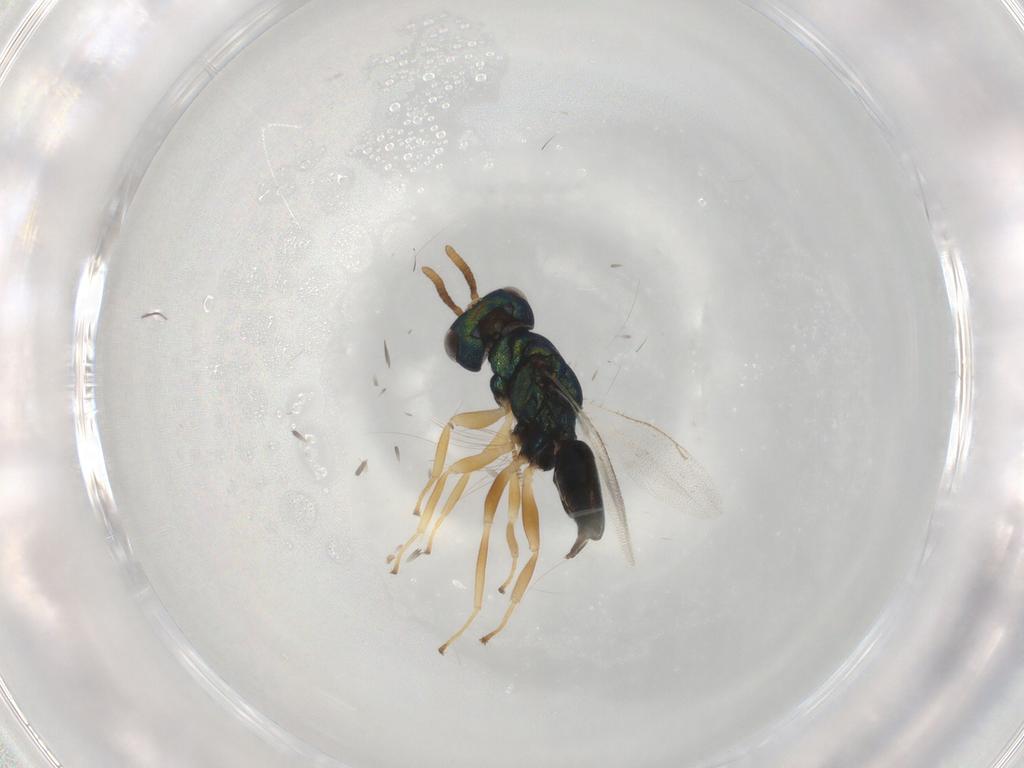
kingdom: Animalia
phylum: Arthropoda
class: Insecta
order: Hymenoptera
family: Pteromalidae
